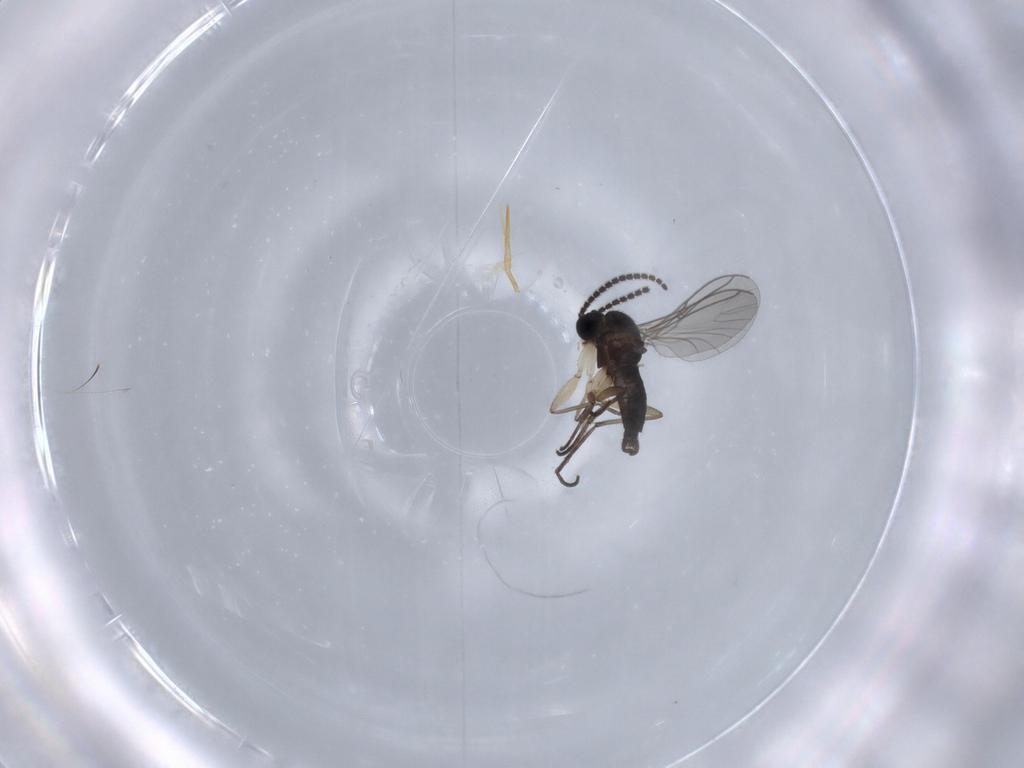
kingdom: Animalia
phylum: Arthropoda
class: Insecta
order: Diptera
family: Sciaridae
